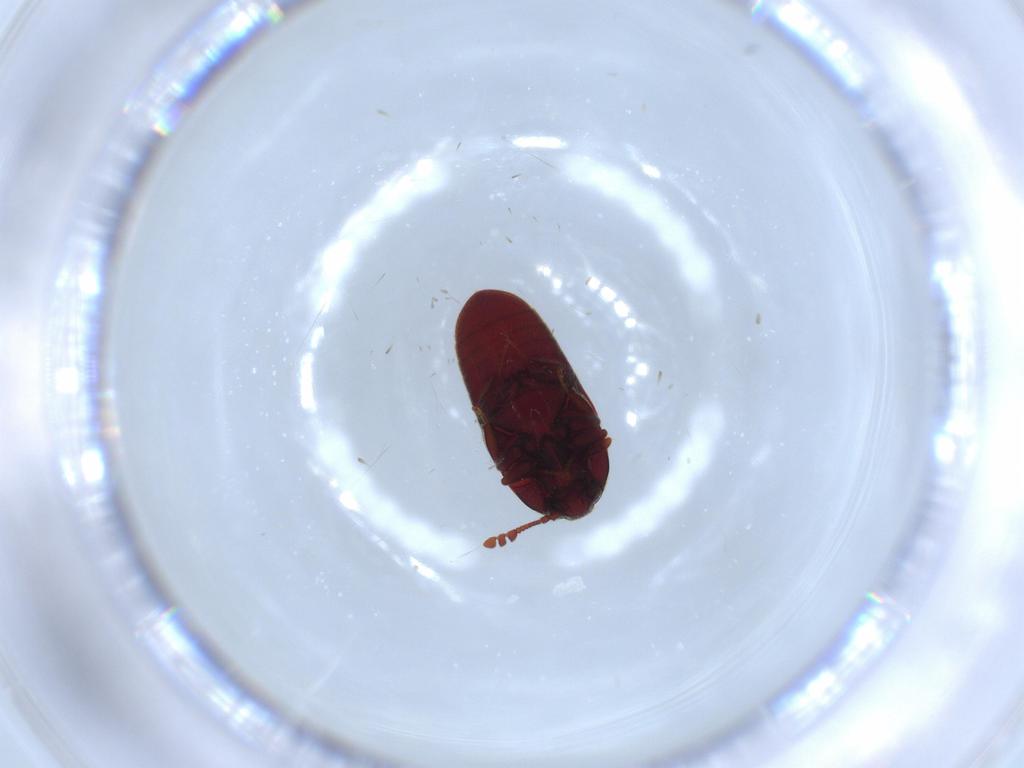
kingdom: Animalia
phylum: Arthropoda
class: Insecta
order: Coleoptera
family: Throscidae
